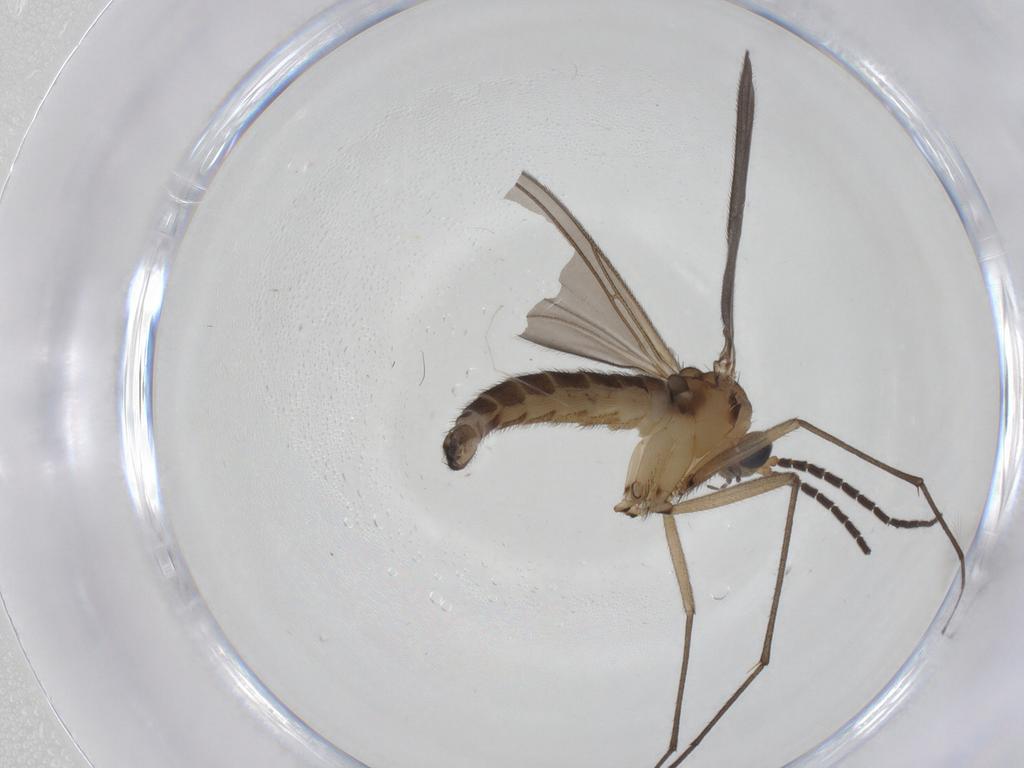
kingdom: Animalia
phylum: Arthropoda
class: Insecta
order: Diptera
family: Sciaridae
